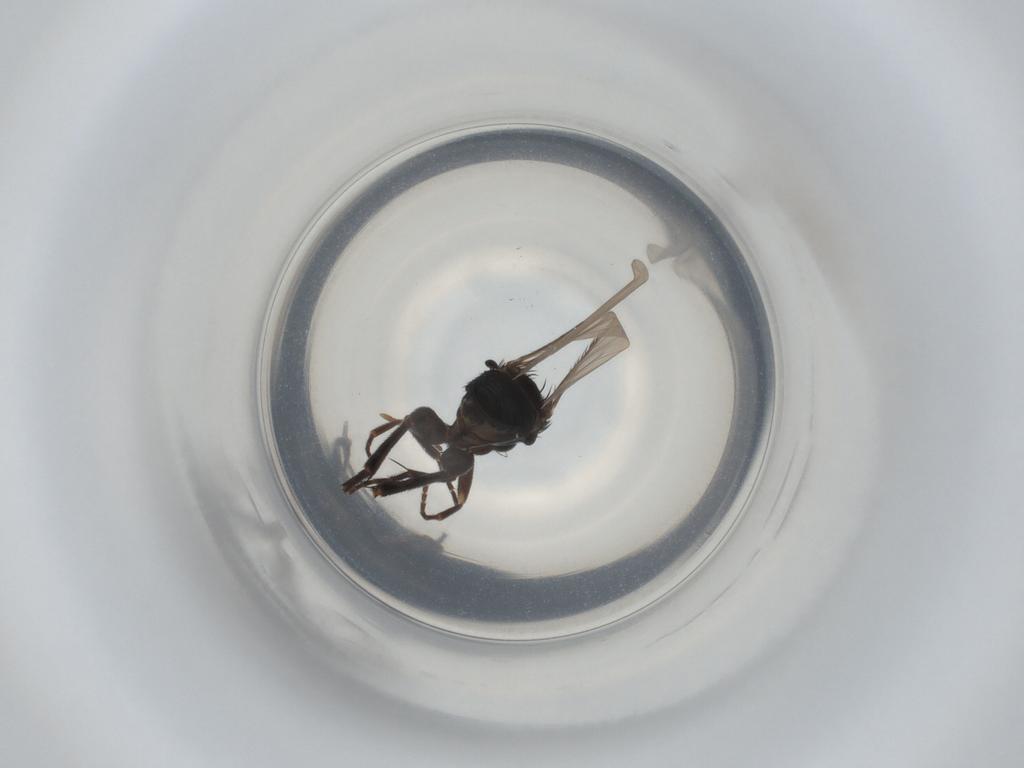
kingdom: Animalia
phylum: Arthropoda
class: Insecta
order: Diptera
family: Phoridae
